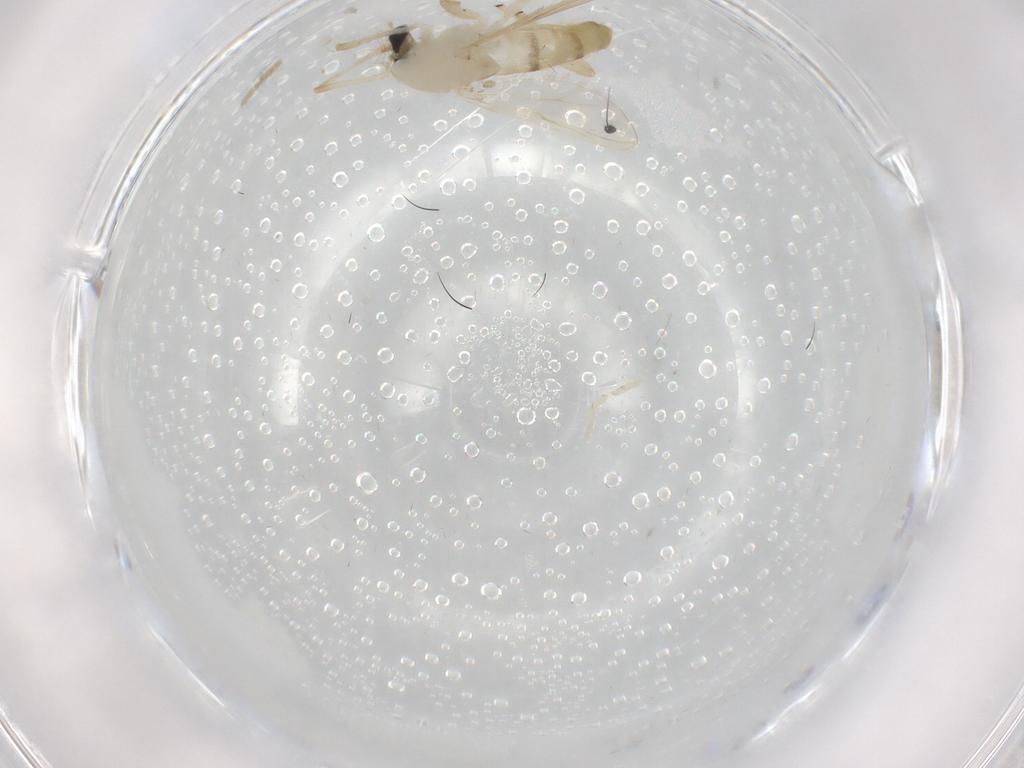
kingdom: Animalia
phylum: Arthropoda
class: Insecta
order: Diptera
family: Chironomidae
